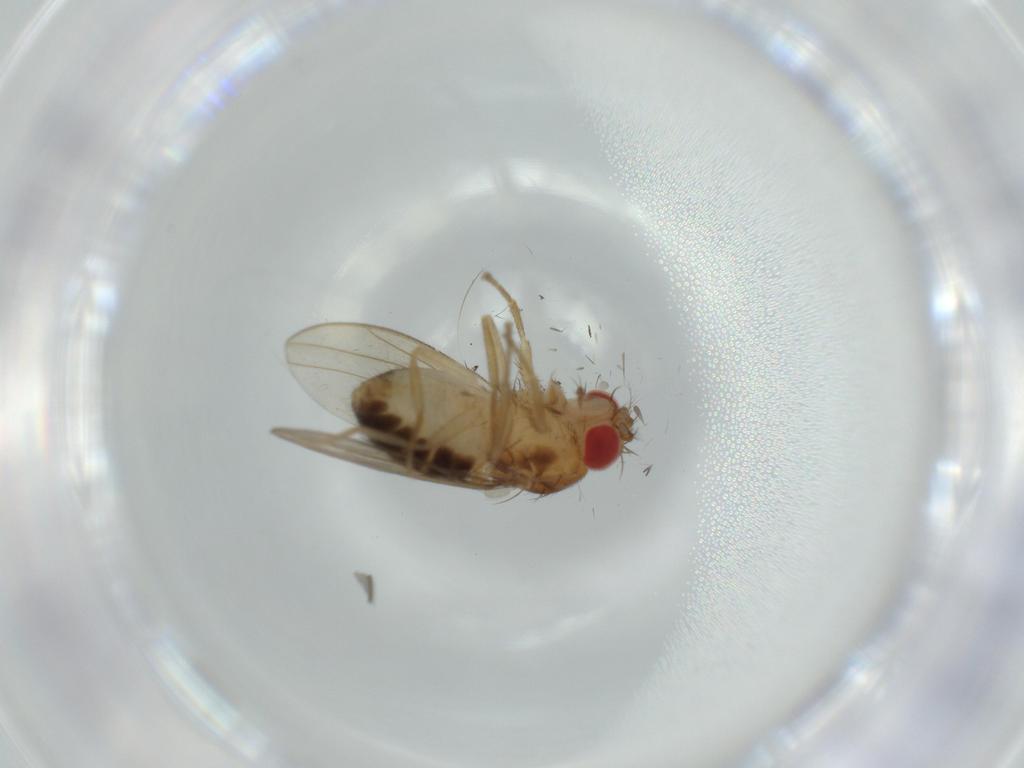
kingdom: Animalia
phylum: Arthropoda
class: Insecta
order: Diptera
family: Drosophilidae
